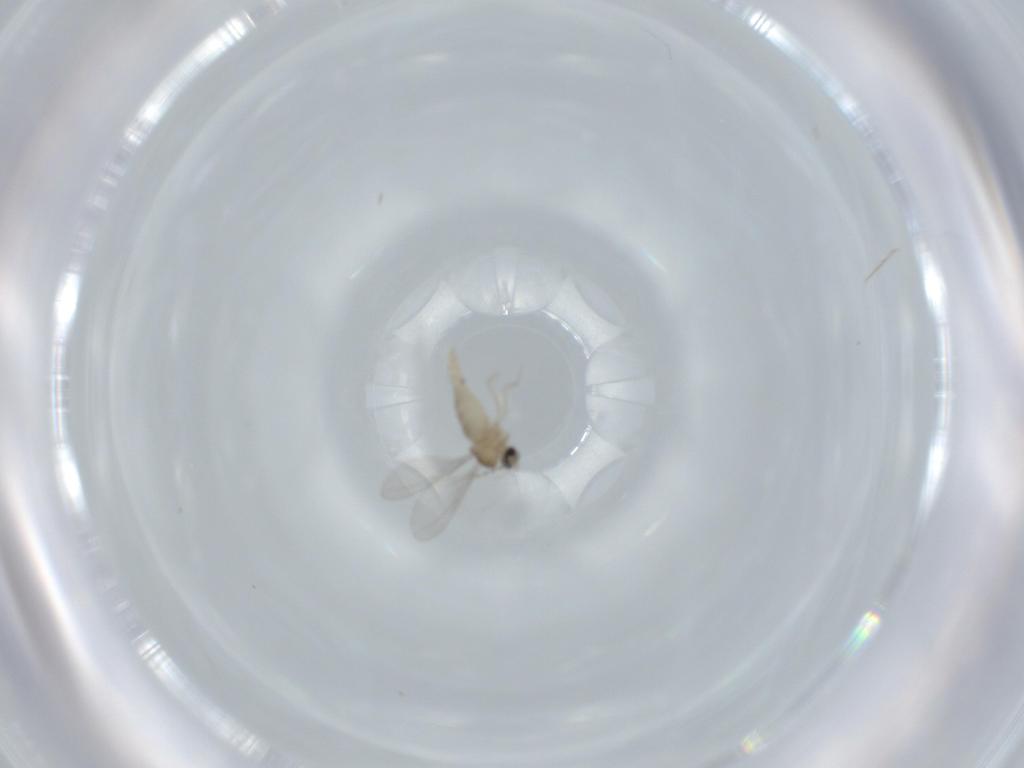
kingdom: Animalia
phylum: Arthropoda
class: Insecta
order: Diptera
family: Cecidomyiidae
